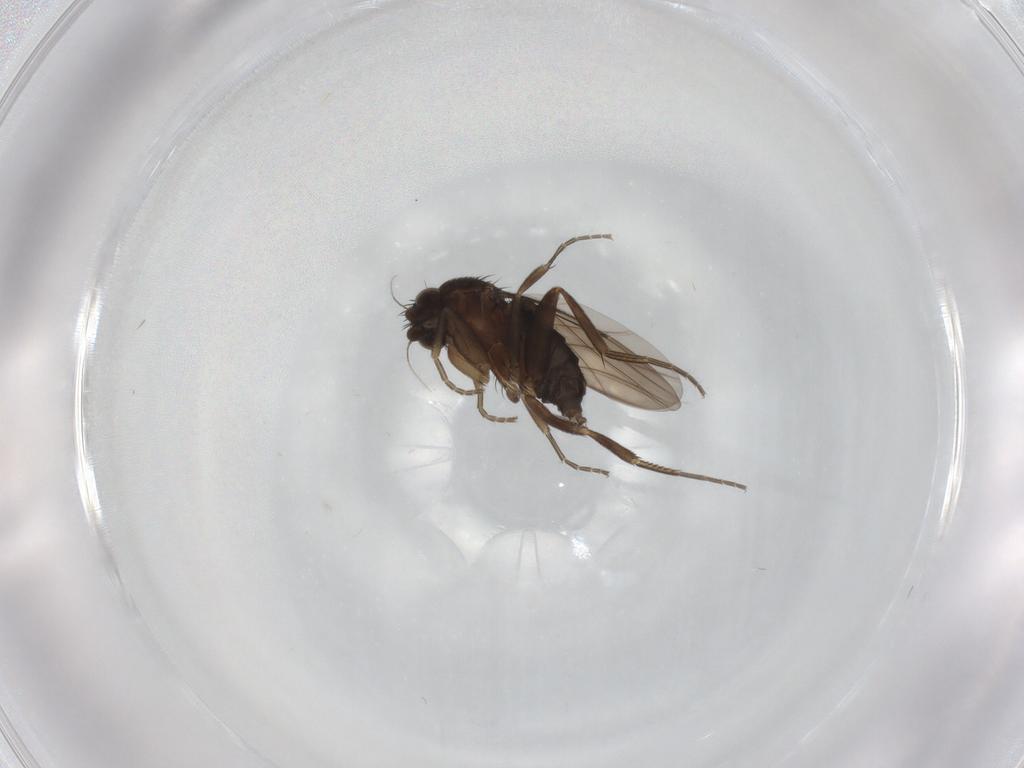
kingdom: Animalia
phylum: Arthropoda
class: Insecta
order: Diptera
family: Phoridae
